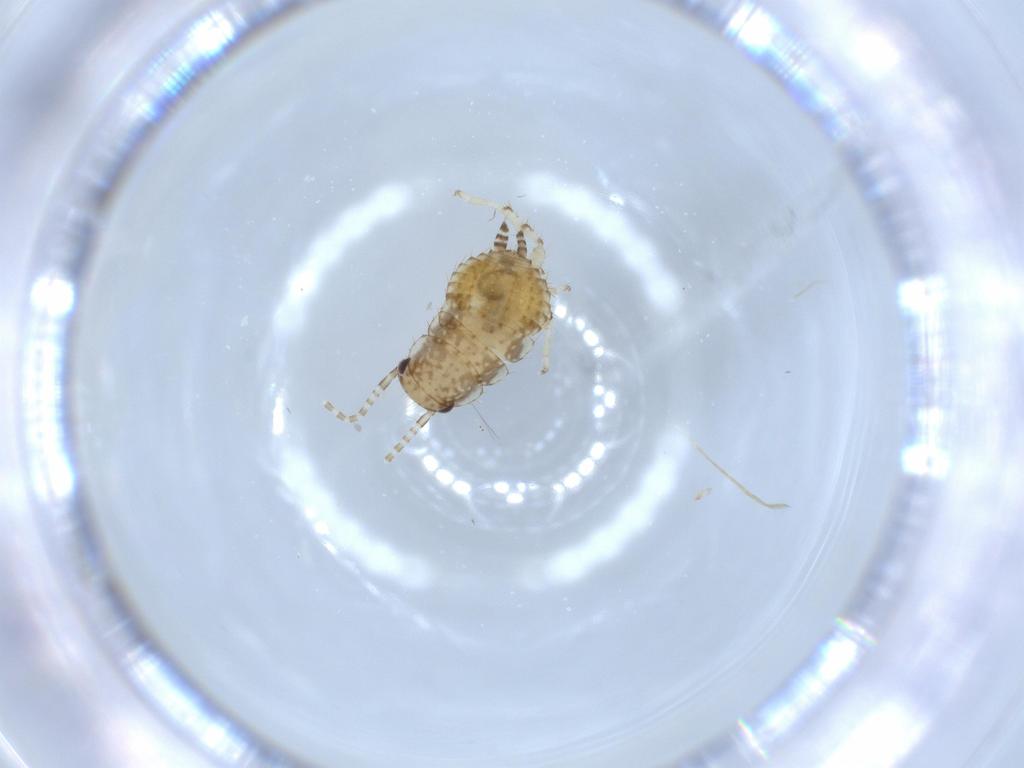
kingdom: Animalia
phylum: Arthropoda
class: Insecta
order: Blattodea
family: Ectobiidae
